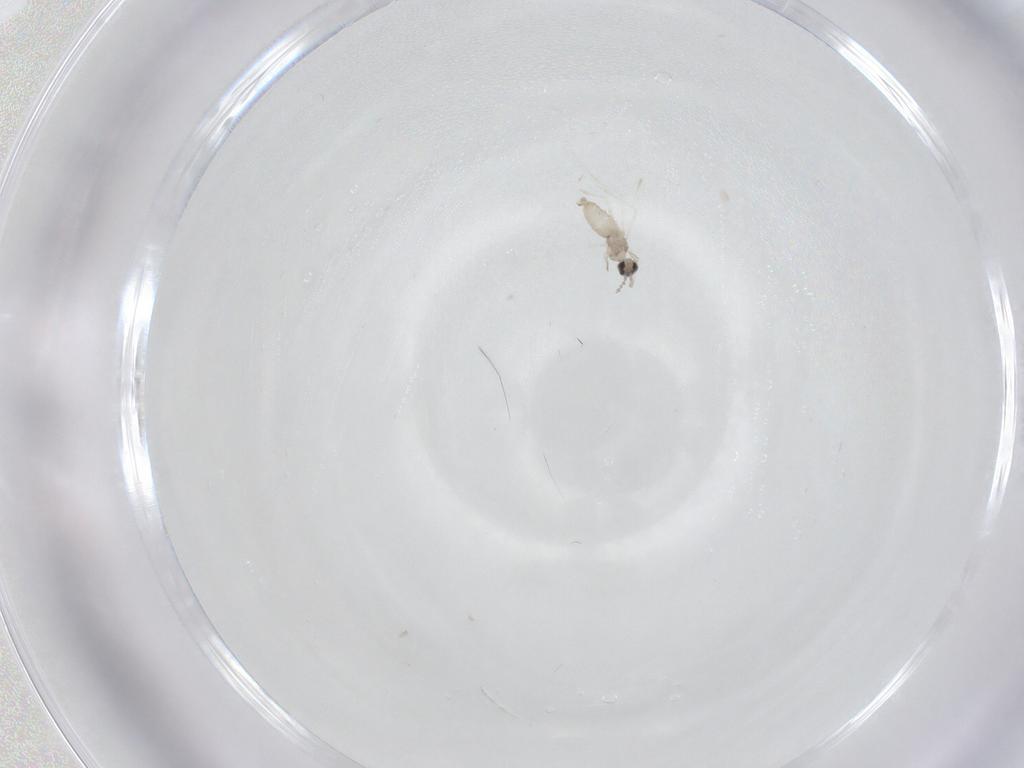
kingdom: Animalia
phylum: Arthropoda
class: Insecta
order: Diptera
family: Cecidomyiidae
